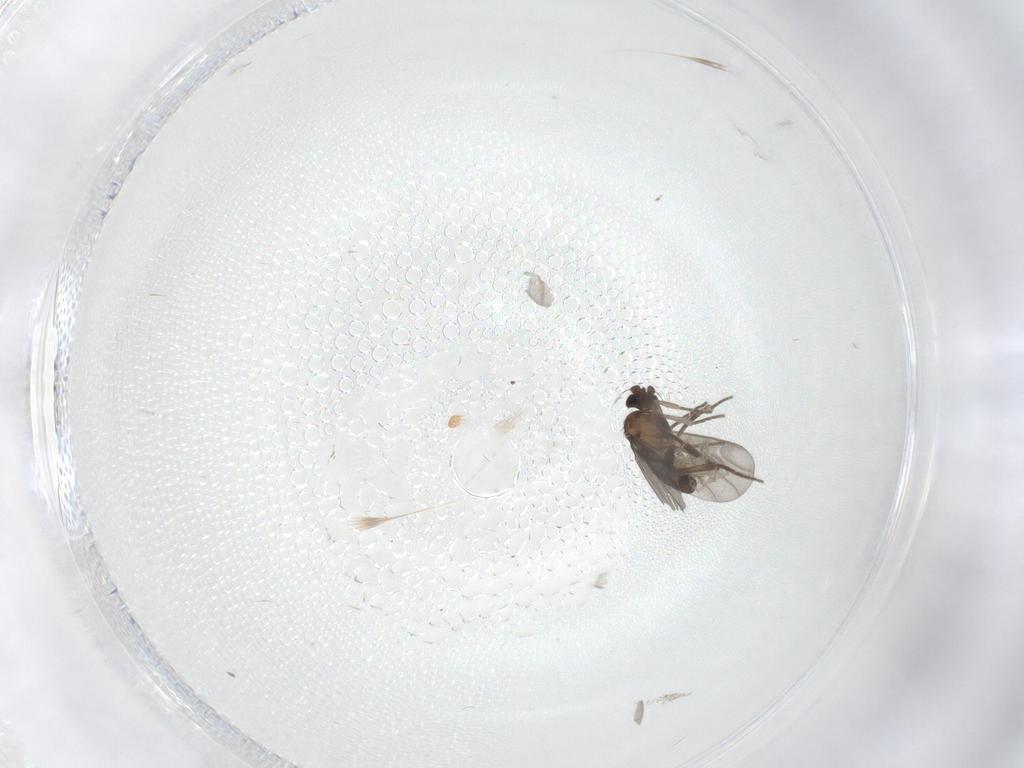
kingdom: Animalia
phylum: Arthropoda
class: Insecta
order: Diptera
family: Phoridae
